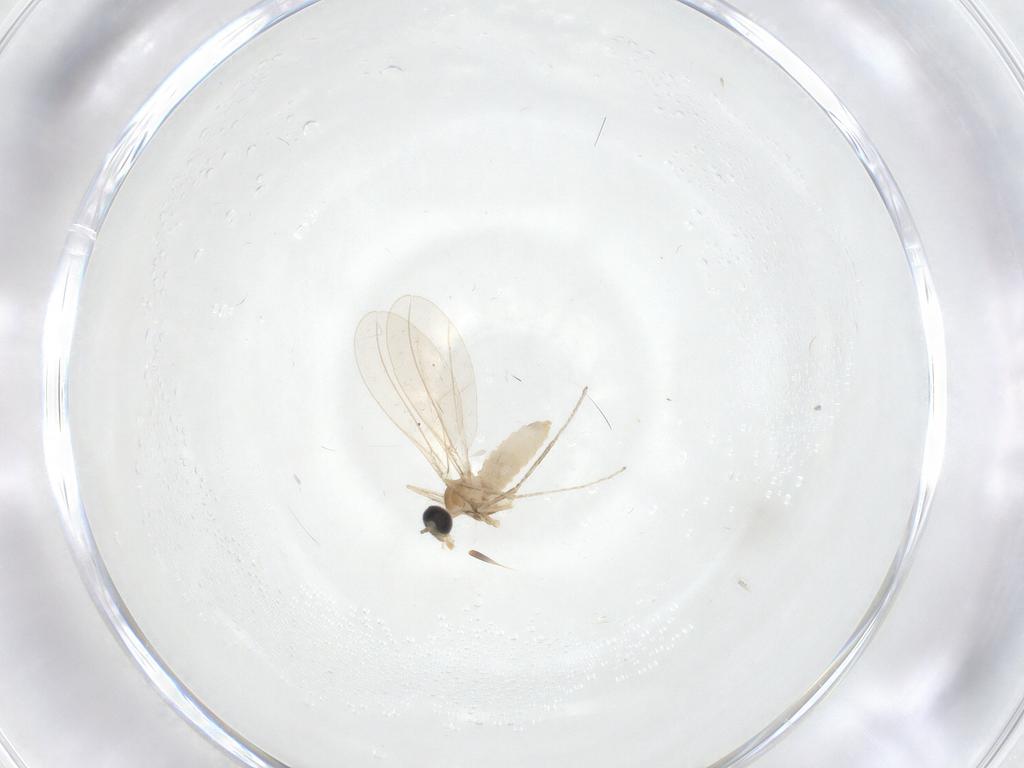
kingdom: Animalia
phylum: Arthropoda
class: Insecta
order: Diptera
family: Cecidomyiidae
